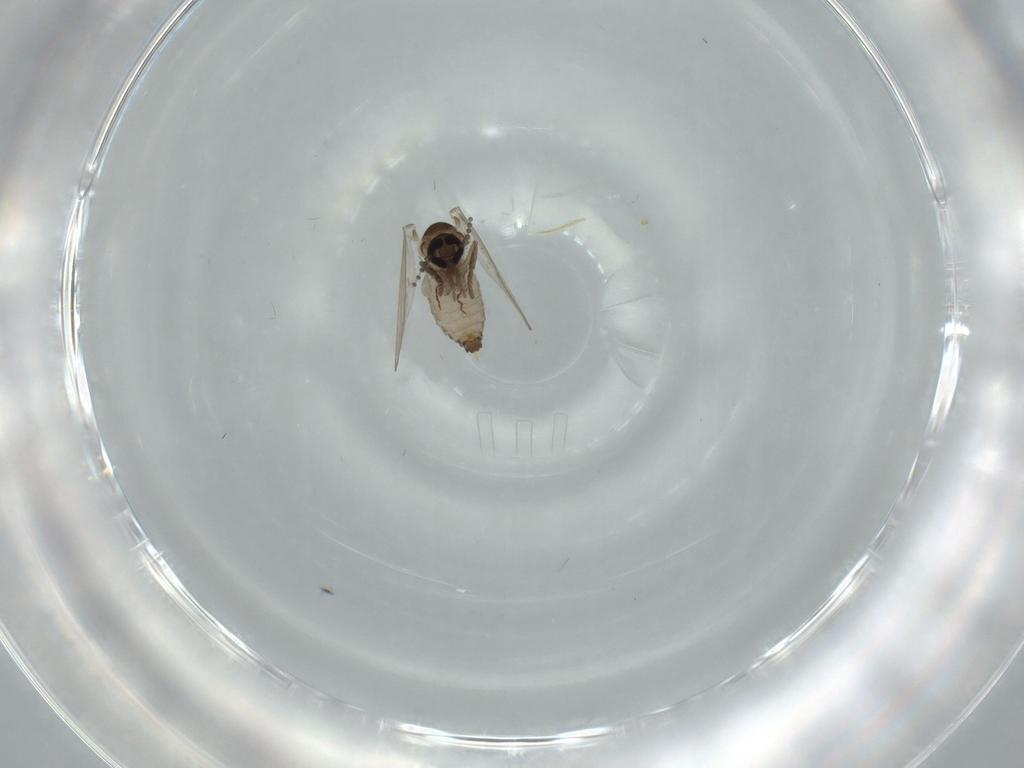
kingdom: Animalia
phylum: Arthropoda
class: Insecta
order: Diptera
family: Psychodidae
